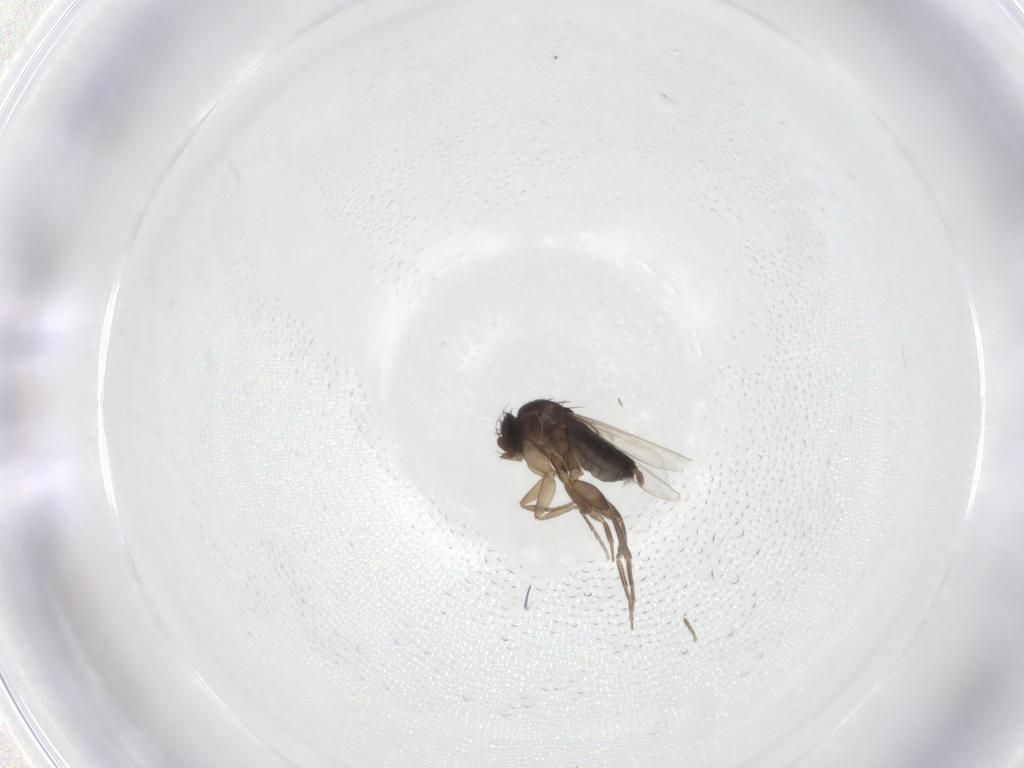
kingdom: Animalia
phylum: Arthropoda
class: Insecta
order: Diptera
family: Phoridae
